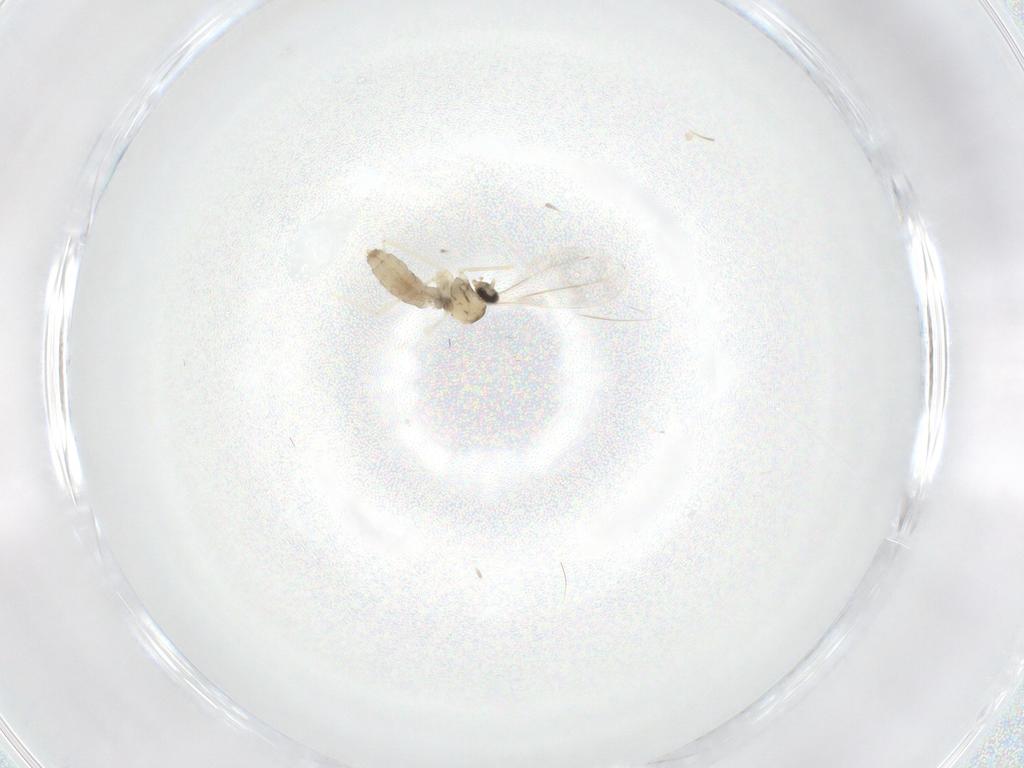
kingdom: Animalia
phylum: Arthropoda
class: Insecta
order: Diptera
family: Cecidomyiidae
